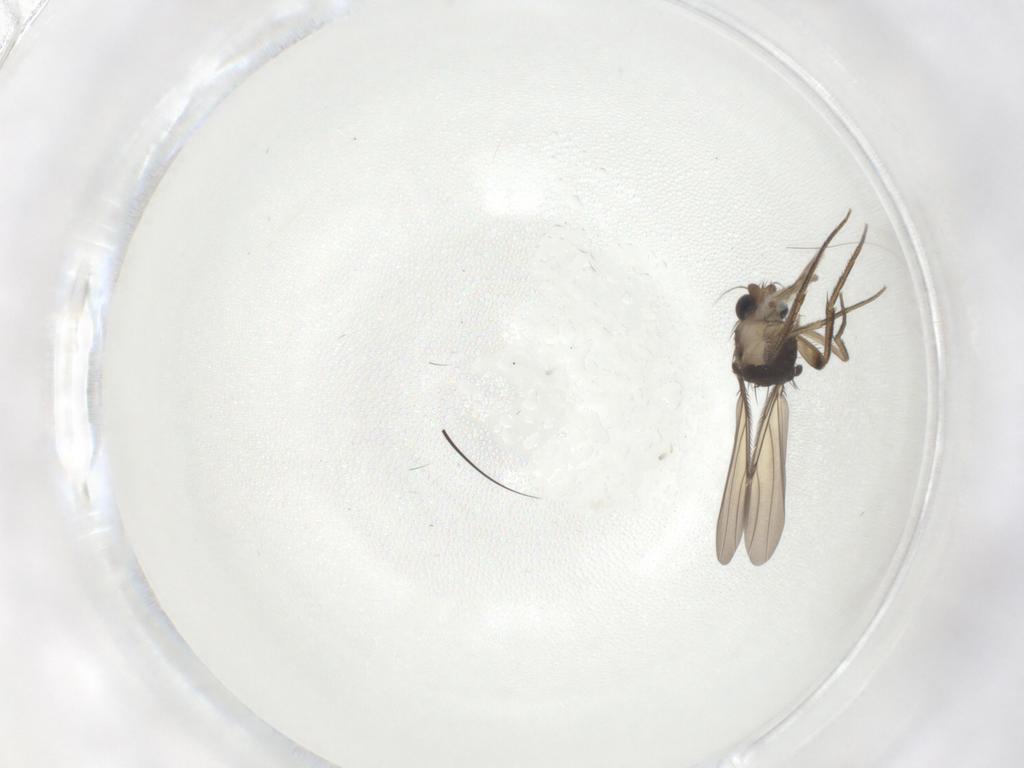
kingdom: Animalia
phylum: Arthropoda
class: Insecta
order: Diptera
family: Phoridae
